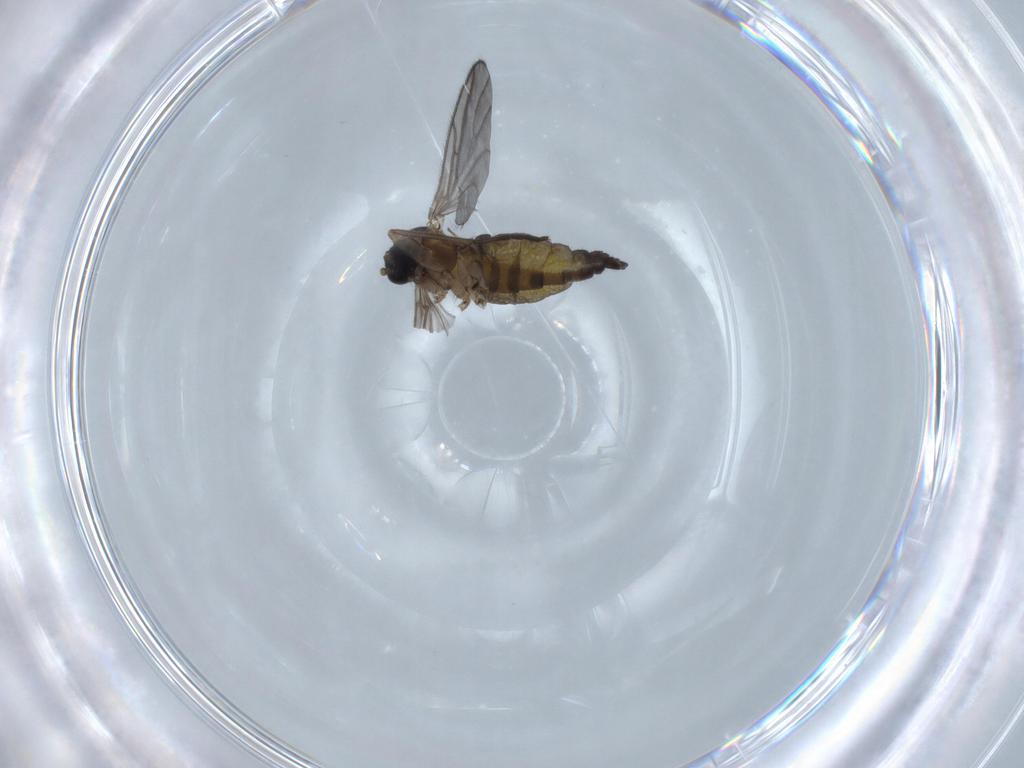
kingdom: Animalia
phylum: Arthropoda
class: Insecta
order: Diptera
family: Sciaridae
